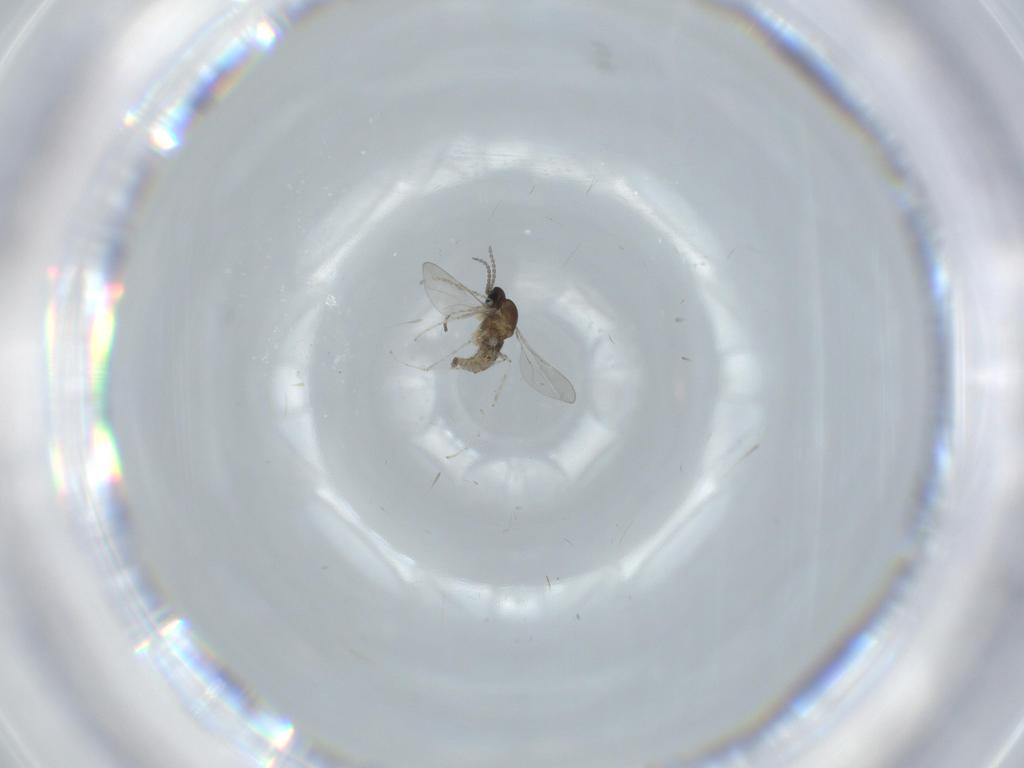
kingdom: Animalia
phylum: Arthropoda
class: Insecta
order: Diptera
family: Cecidomyiidae
